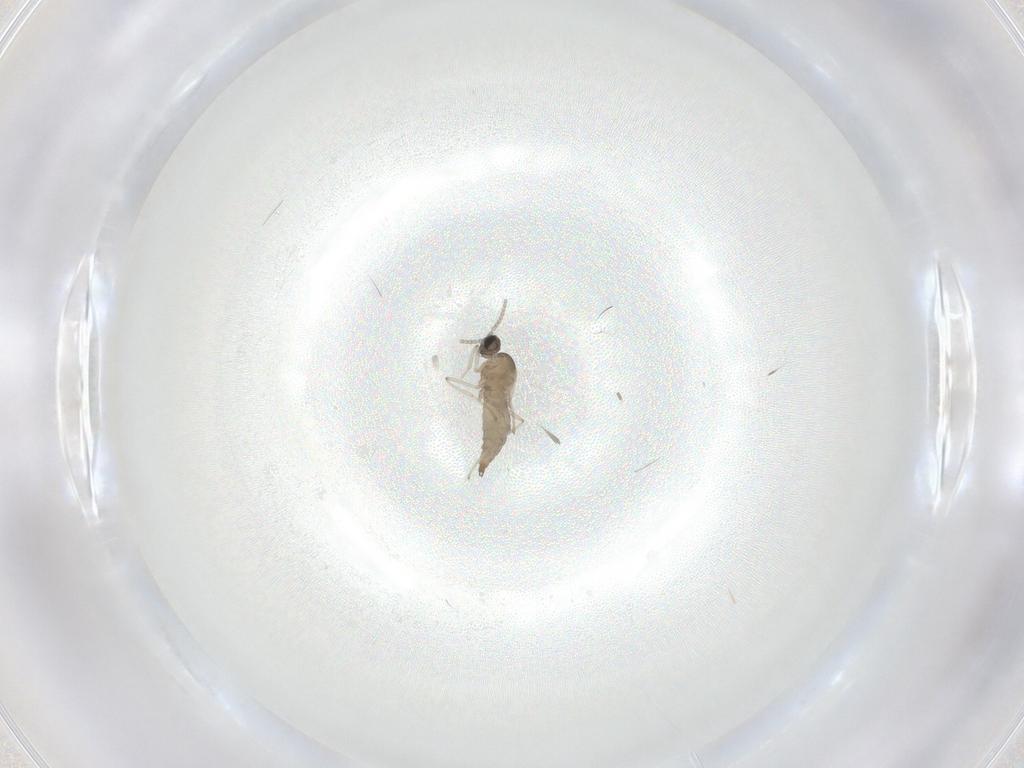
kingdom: Animalia
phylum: Arthropoda
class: Insecta
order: Diptera
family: Cecidomyiidae
